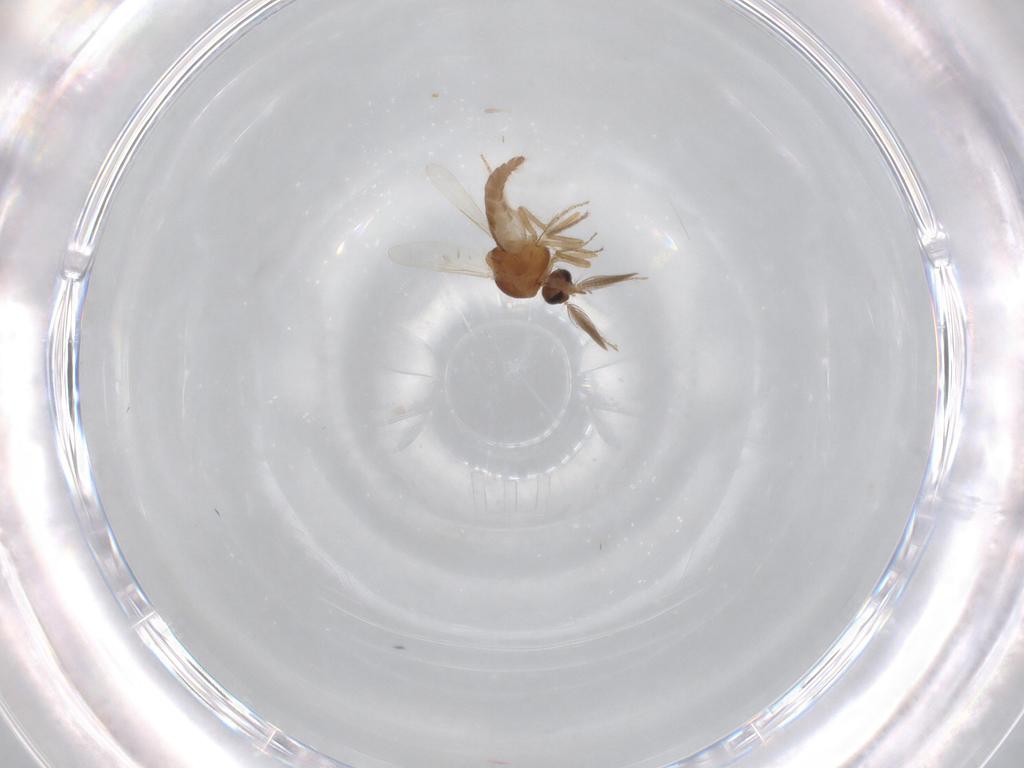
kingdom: Animalia
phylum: Arthropoda
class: Insecta
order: Diptera
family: Ceratopogonidae
